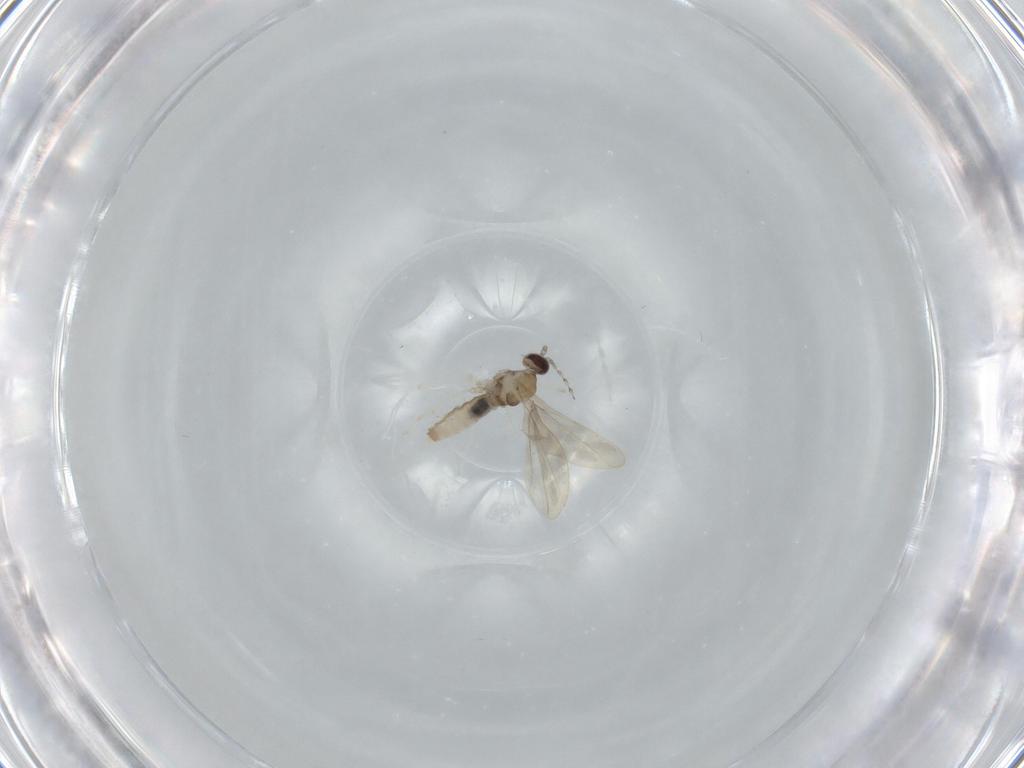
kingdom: Animalia
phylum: Arthropoda
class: Insecta
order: Diptera
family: Cecidomyiidae
